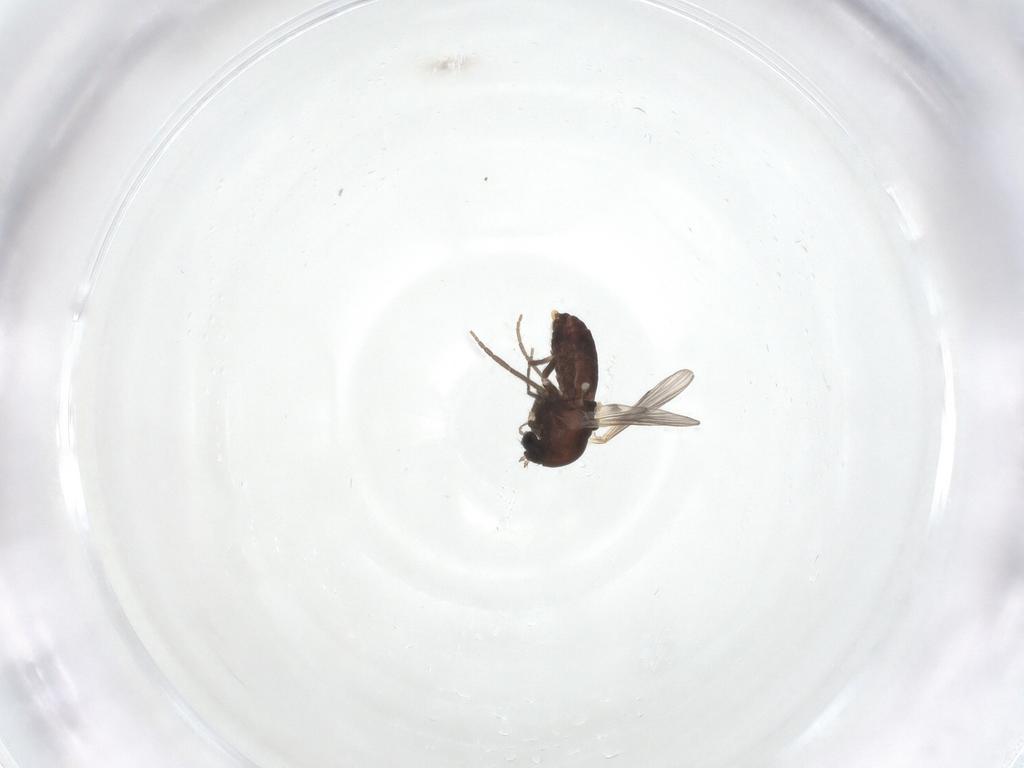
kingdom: Animalia
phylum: Arthropoda
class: Insecta
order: Diptera
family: Chironomidae
